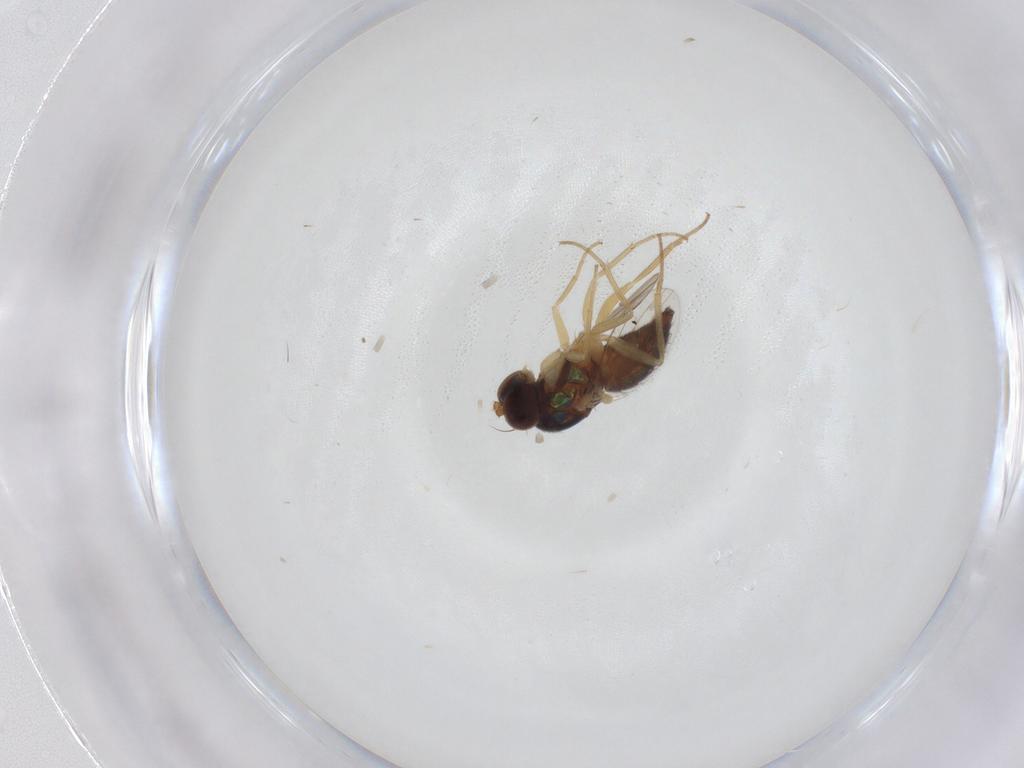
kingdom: Animalia
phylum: Arthropoda
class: Insecta
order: Diptera
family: Dolichopodidae
